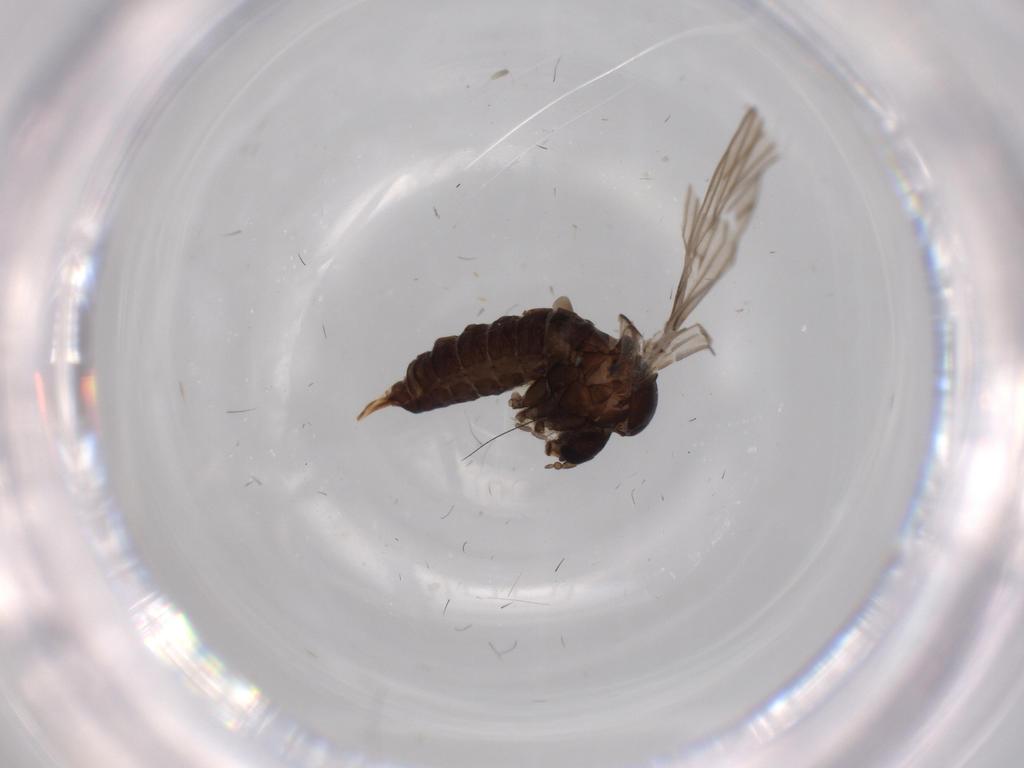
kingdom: Animalia
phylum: Arthropoda
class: Insecta
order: Diptera
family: Psychodidae
